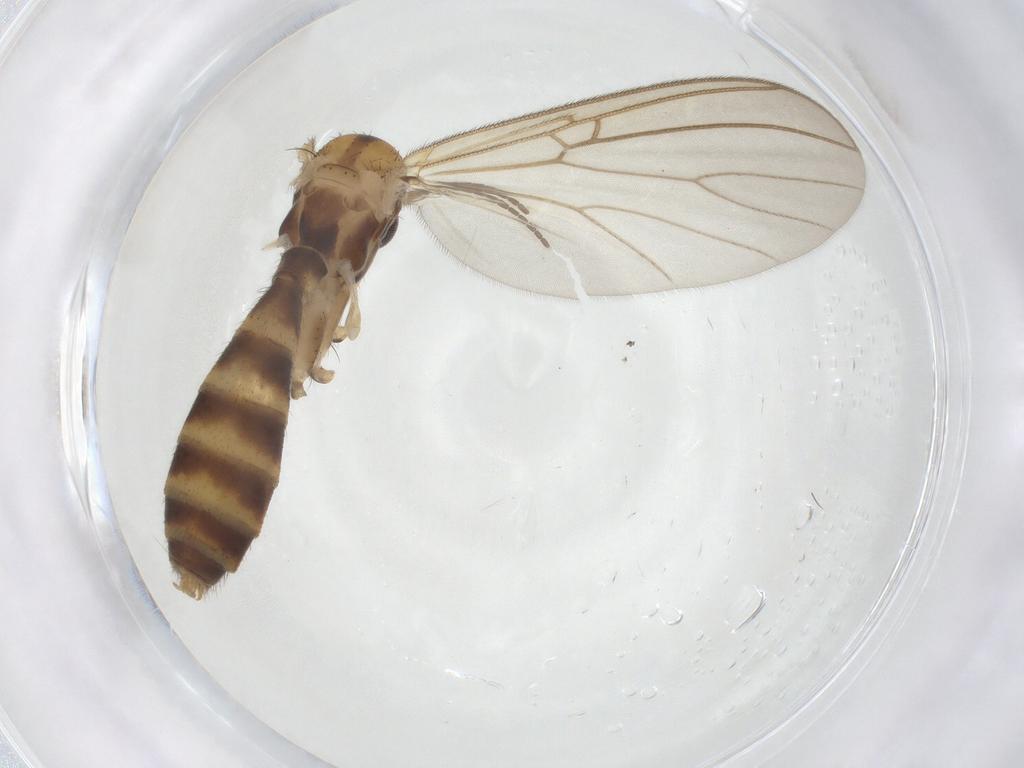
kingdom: Animalia
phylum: Arthropoda
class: Insecta
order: Diptera
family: Mycetophilidae
